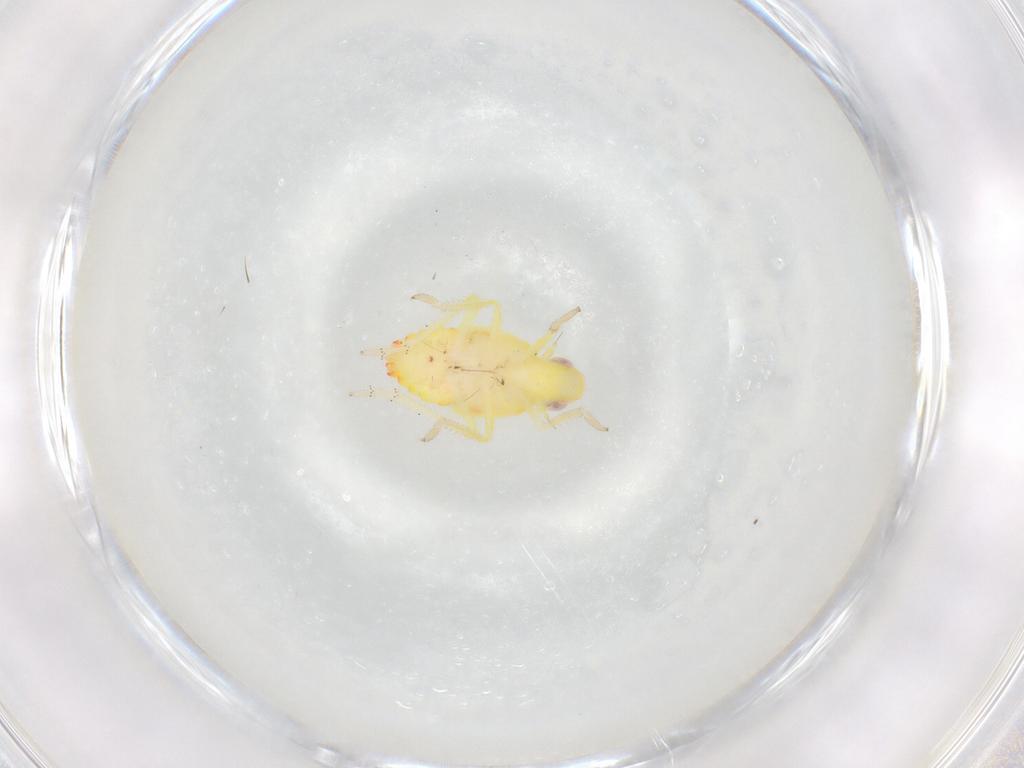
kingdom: Animalia
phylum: Arthropoda
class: Insecta
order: Hemiptera
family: Tropiduchidae
